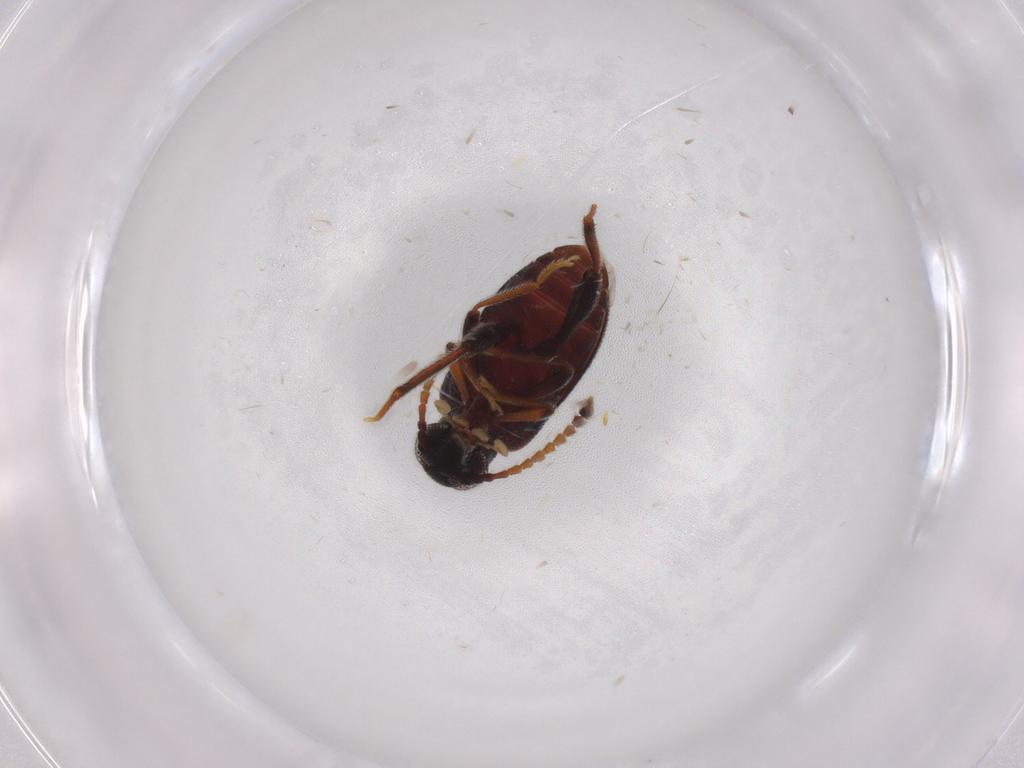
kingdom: Animalia
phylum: Arthropoda
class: Insecta
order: Coleoptera
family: Aderidae
